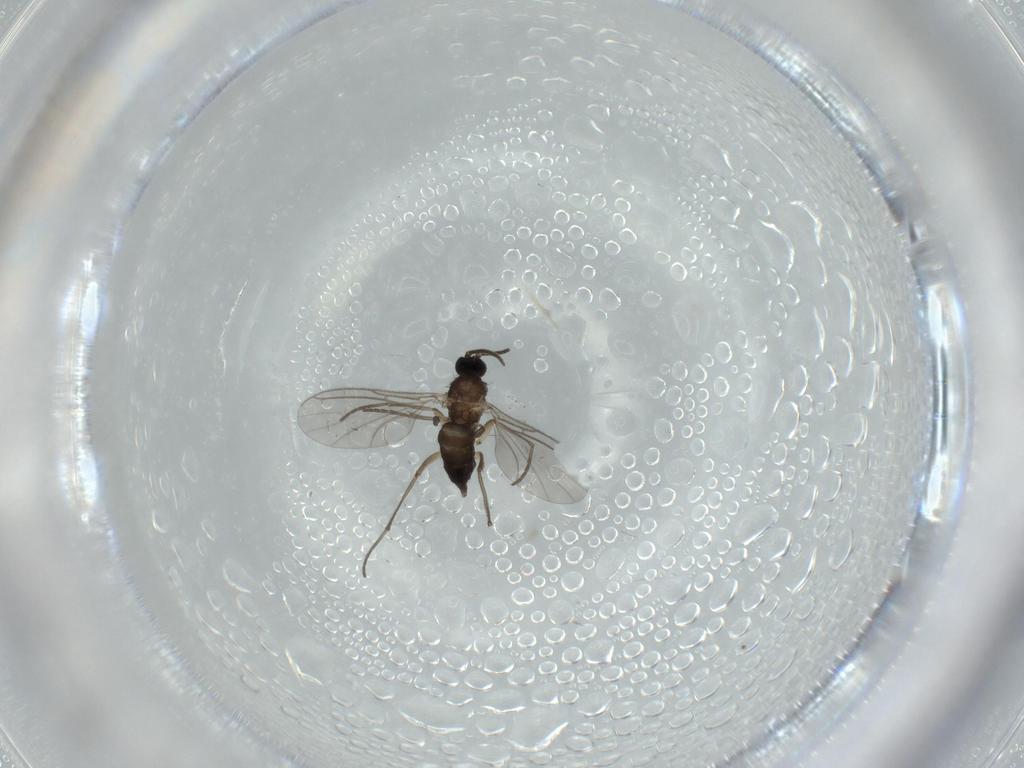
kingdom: Animalia
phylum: Arthropoda
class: Insecta
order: Diptera
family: Sciaridae
